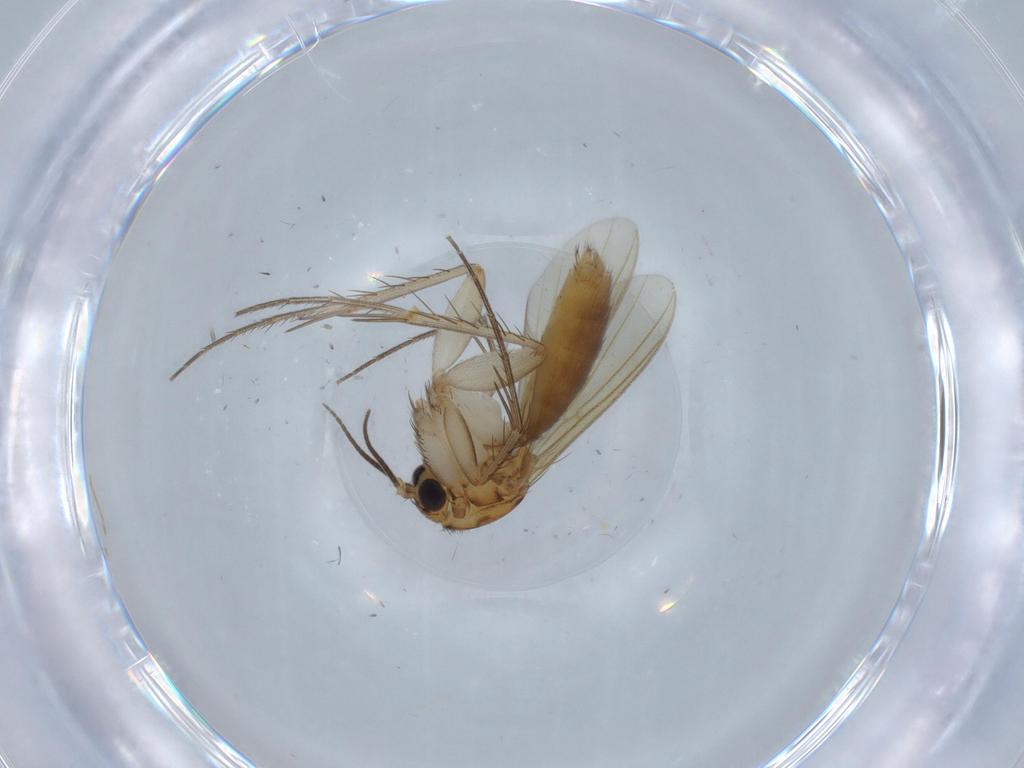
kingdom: Animalia
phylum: Arthropoda
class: Insecta
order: Diptera
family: Mycetophilidae
